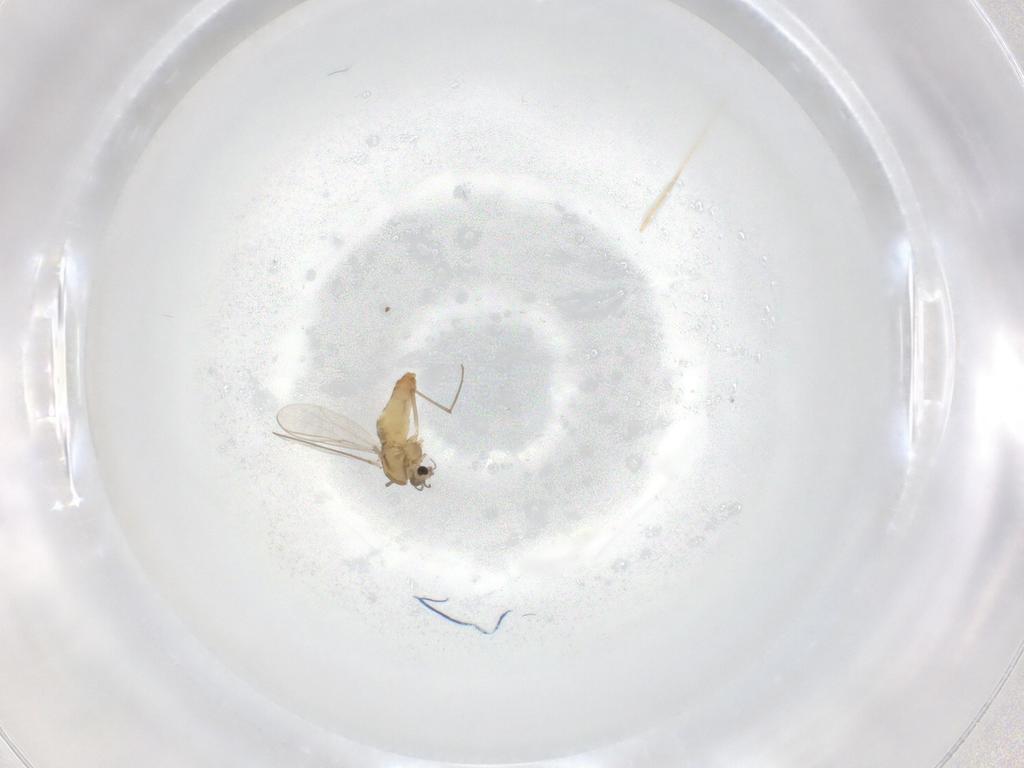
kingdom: Animalia
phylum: Arthropoda
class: Insecta
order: Diptera
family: Chironomidae
